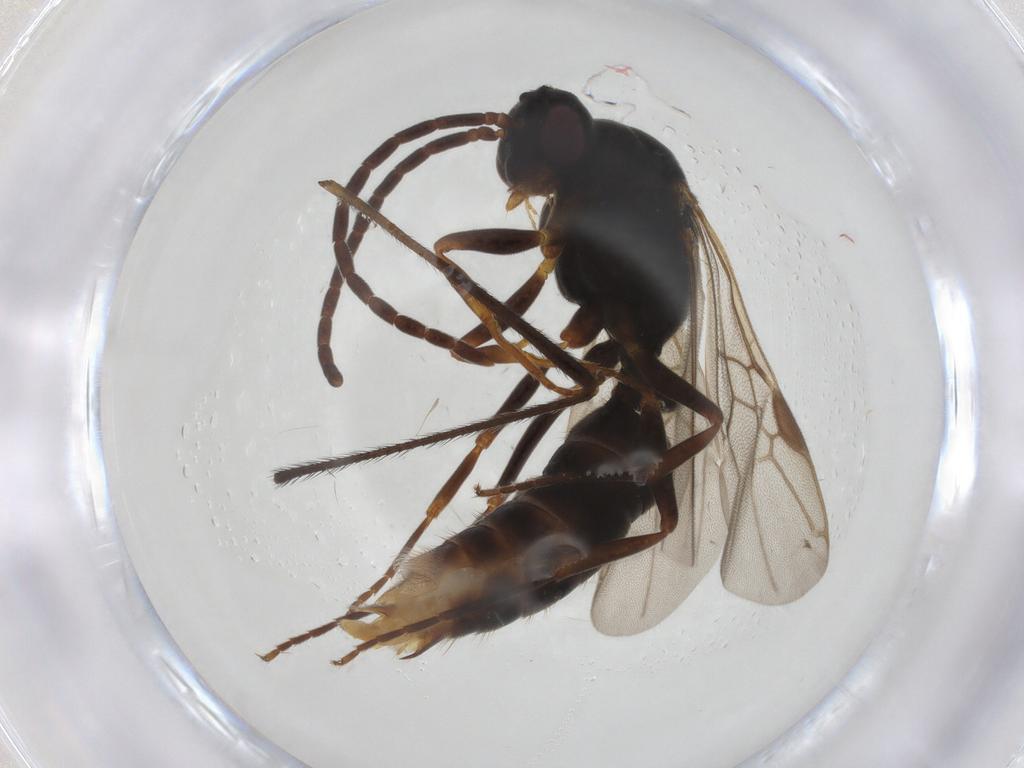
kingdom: Animalia
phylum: Arthropoda
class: Insecta
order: Hymenoptera
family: Formicidae
